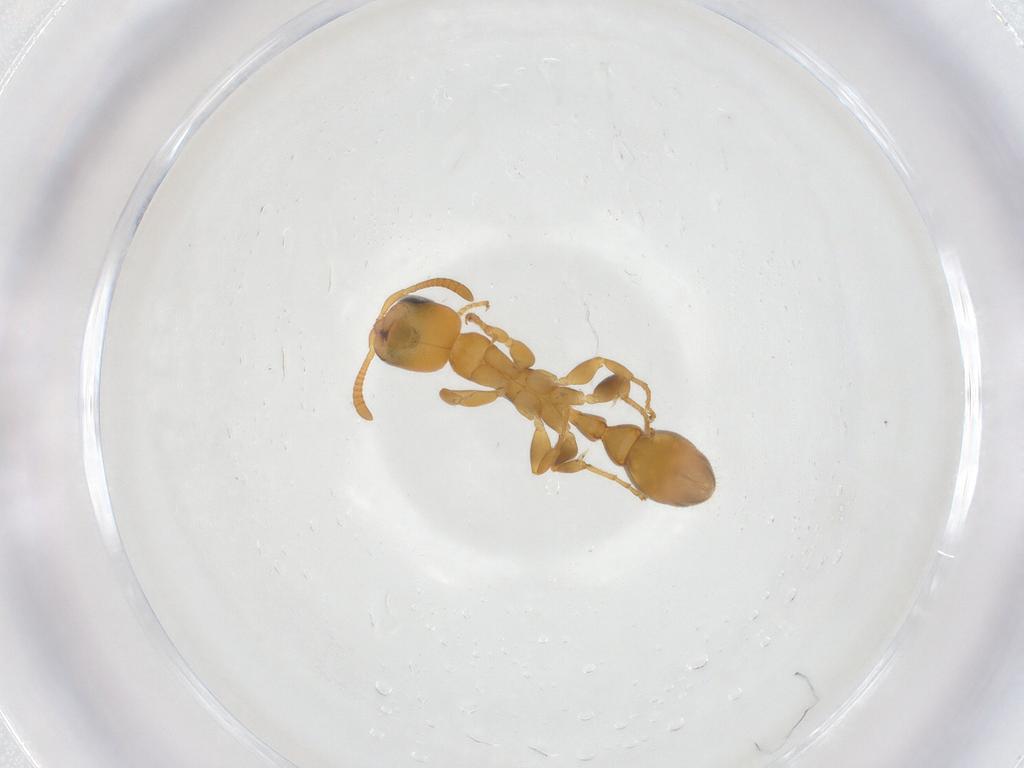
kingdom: Animalia
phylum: Arthropoda
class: Insecta
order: Hymenoptera
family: Formicidae
